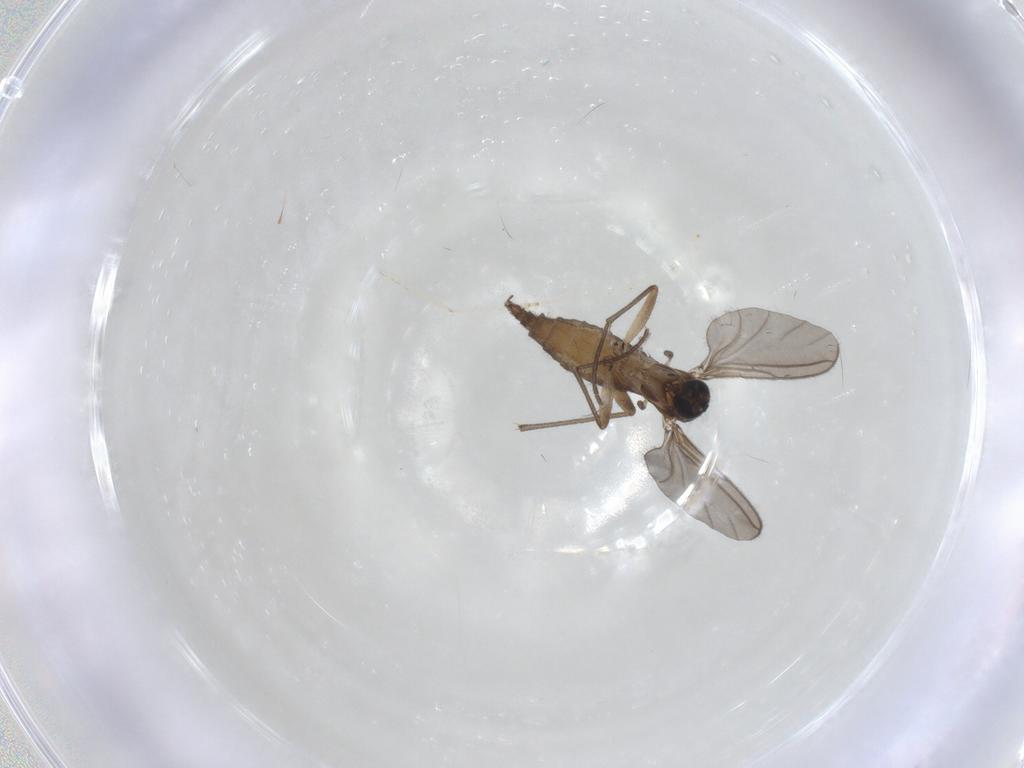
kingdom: Animalia
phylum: Arthropoda
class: Insecta
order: Diptera
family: Sciaridae
